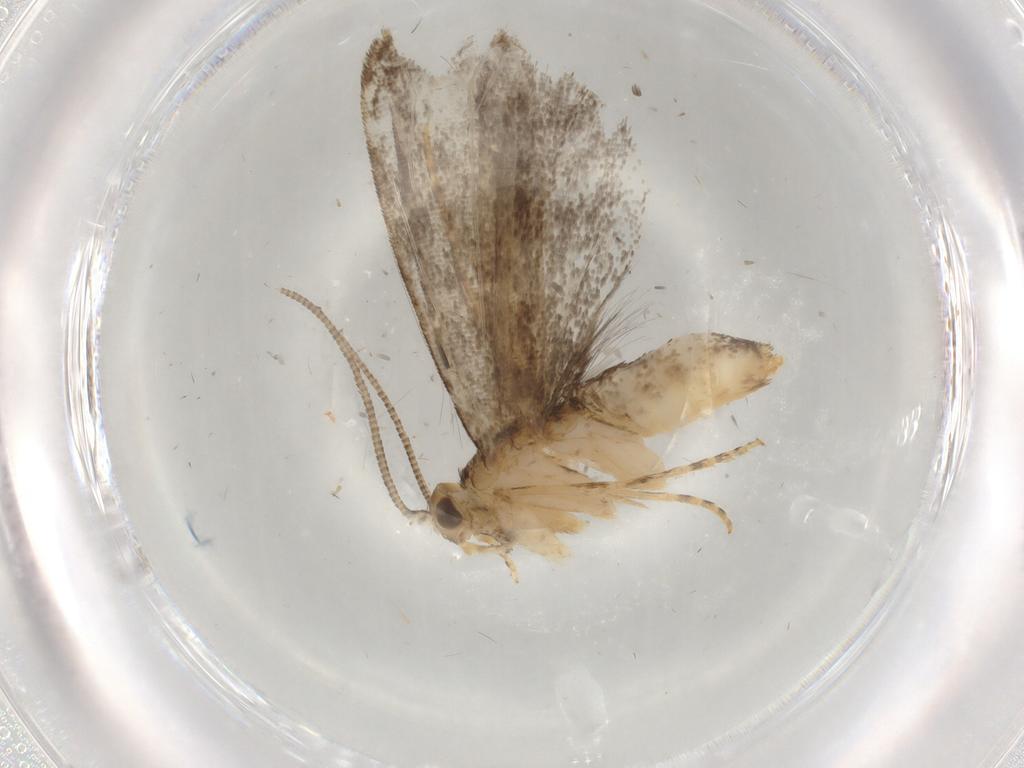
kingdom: Animalia
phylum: Arthropoda
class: Insecta
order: Lepidoptera
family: Dryadaulidae
